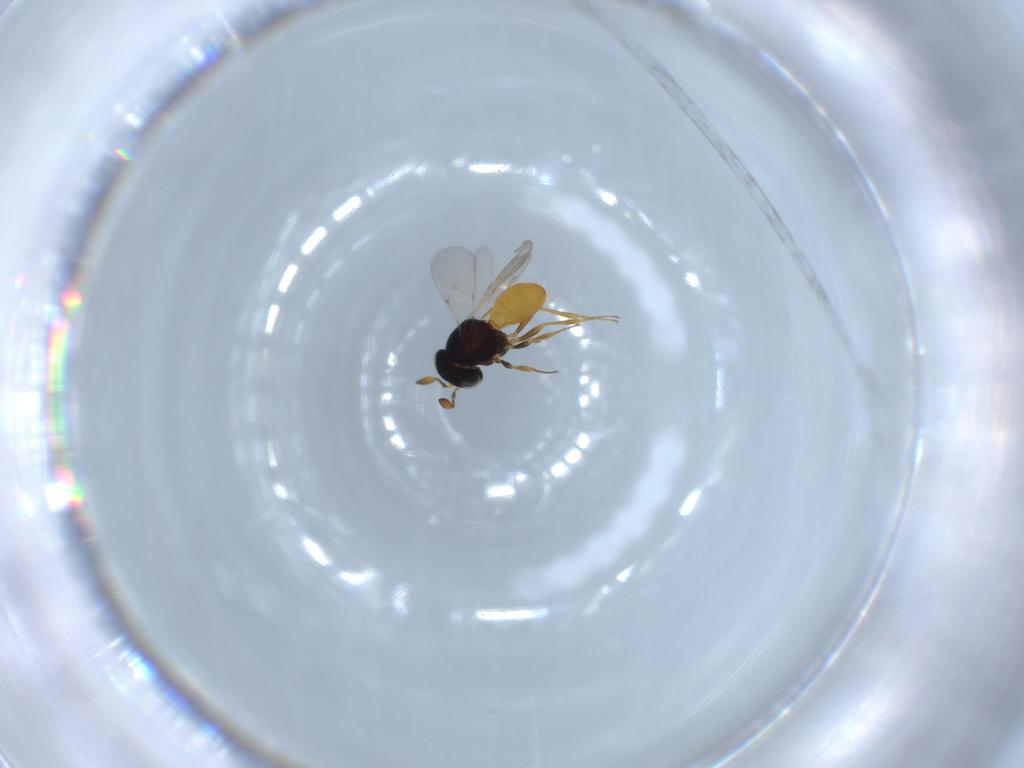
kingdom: Animalia
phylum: Arthropoda
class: Insecta
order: Hymenoptera
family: Scelionidae
